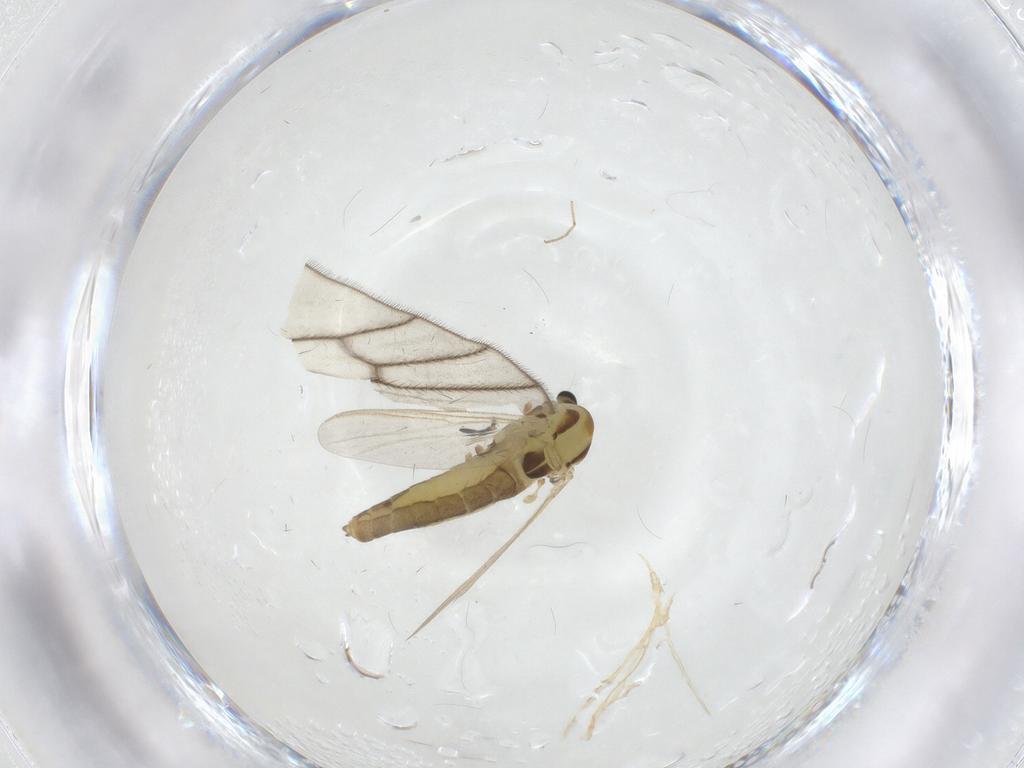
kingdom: Animalia
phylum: Arthropoda
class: Insecta
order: Diptera
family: Chironomidae
